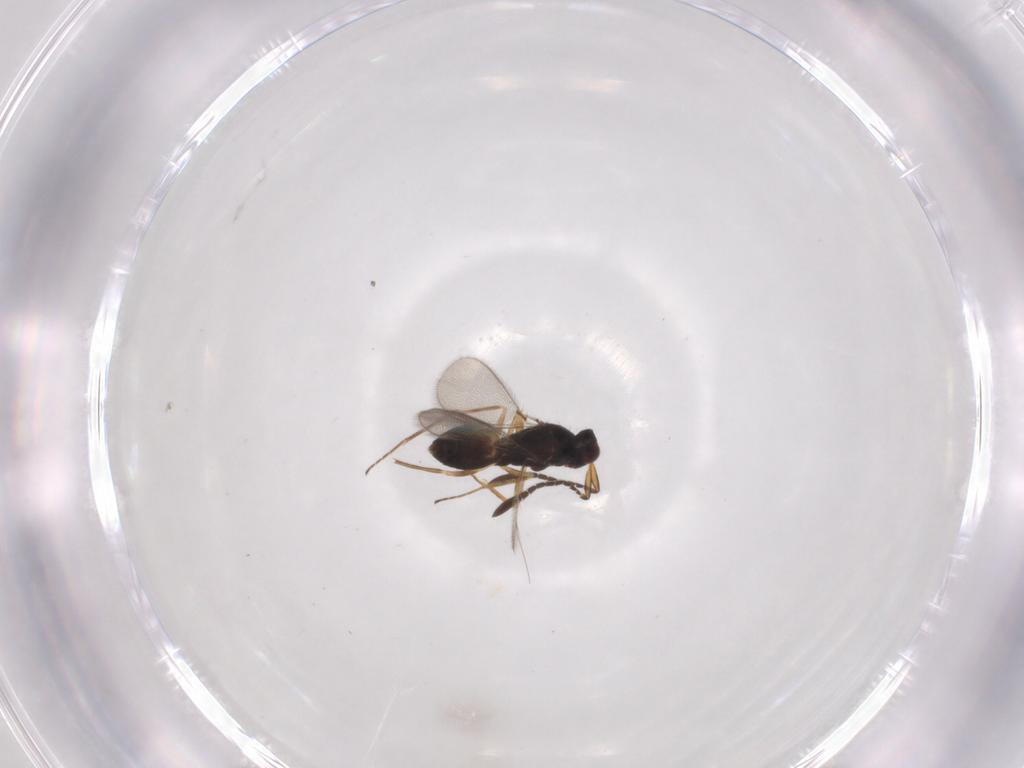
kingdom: Animalia
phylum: Arthropoda
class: Insecta
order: Hymenoptera
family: Mymaridae
